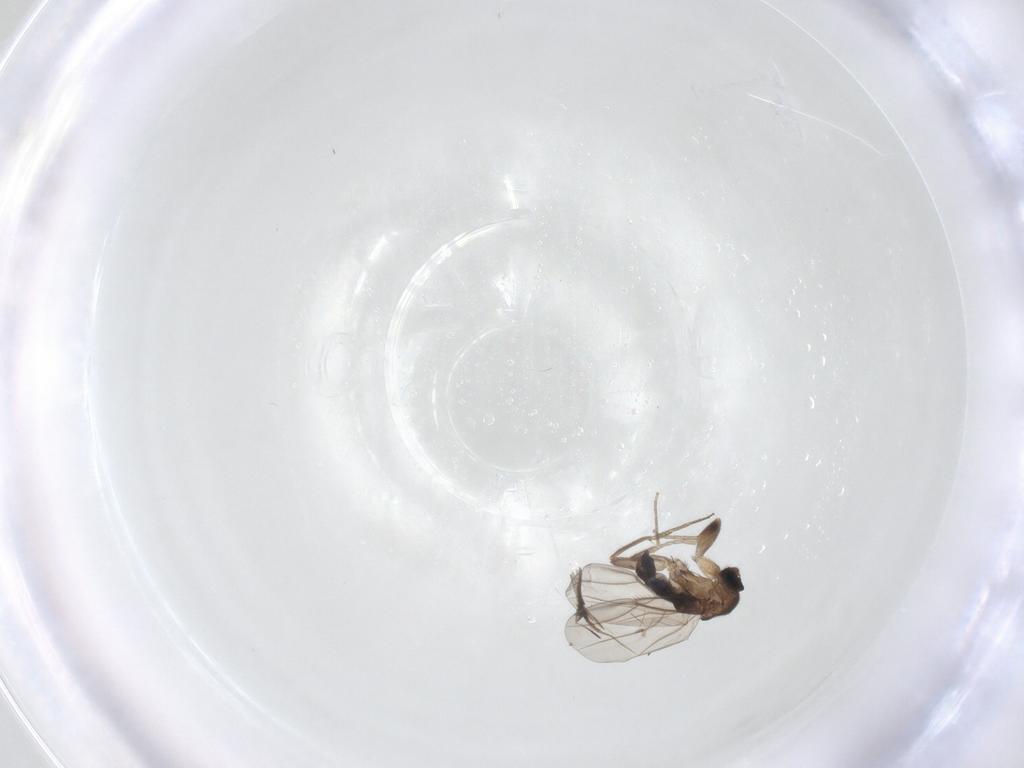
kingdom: Animalia
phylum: Arthropoda
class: Insecta
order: Diptera
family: Phoridae
